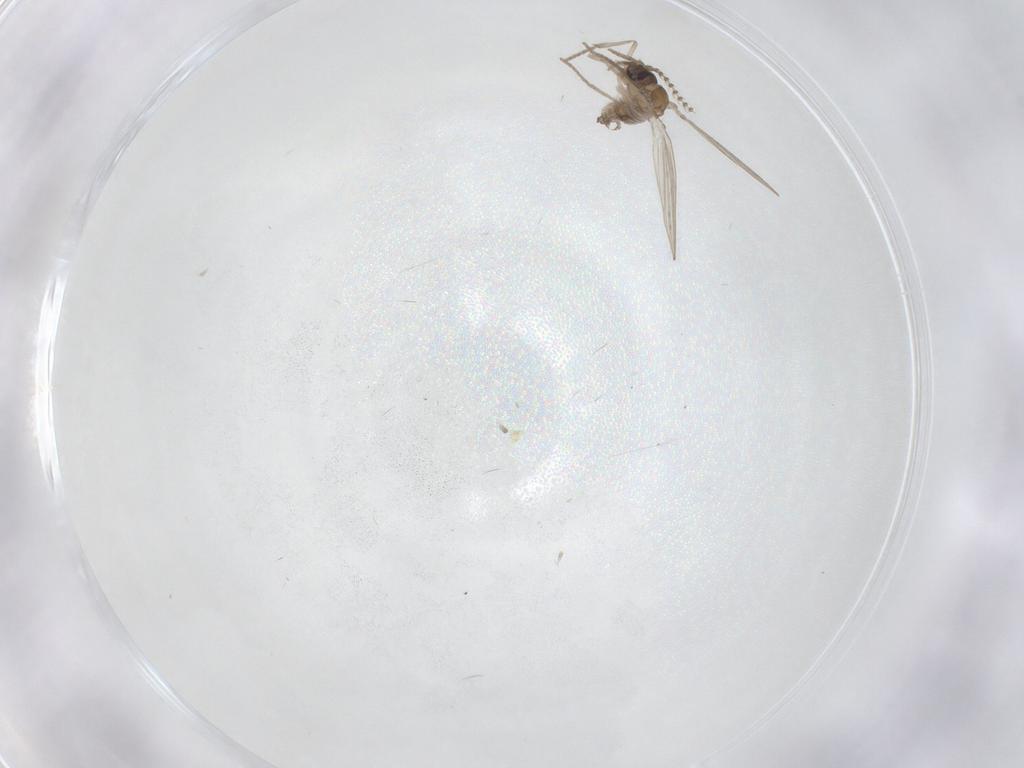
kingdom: Animalia
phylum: Arthropoda
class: Insecta
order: Diptera
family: Psychodidae
